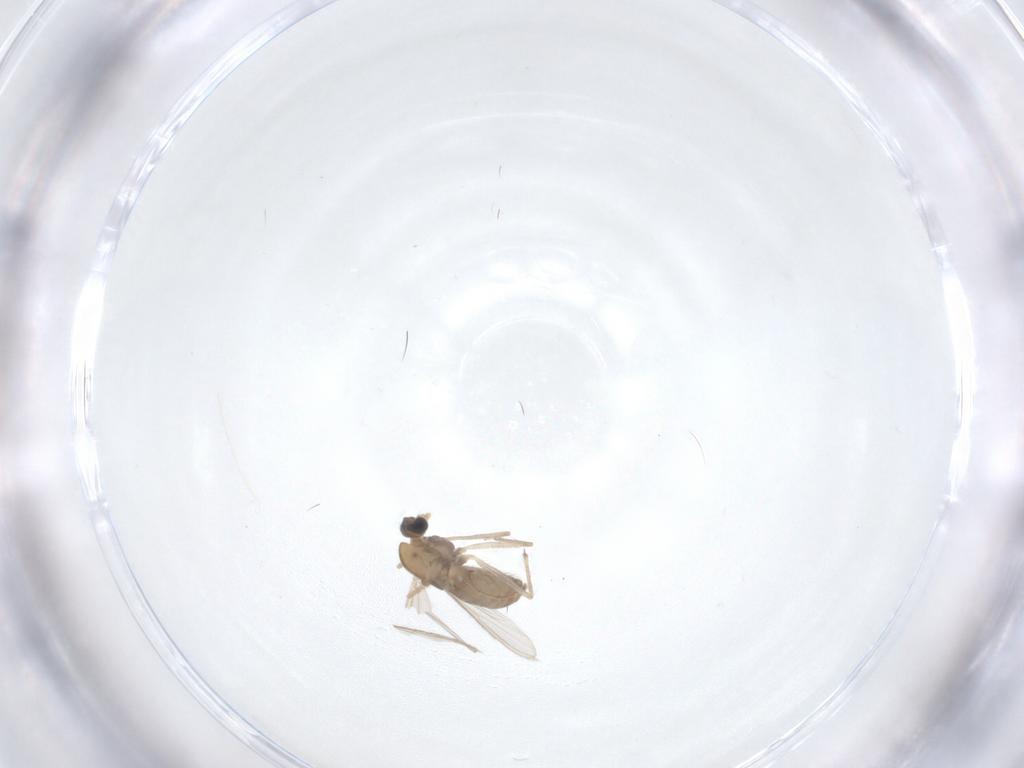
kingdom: Animalia
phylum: Arthropoda
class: Insecta
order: Diptera
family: Chironomidae
